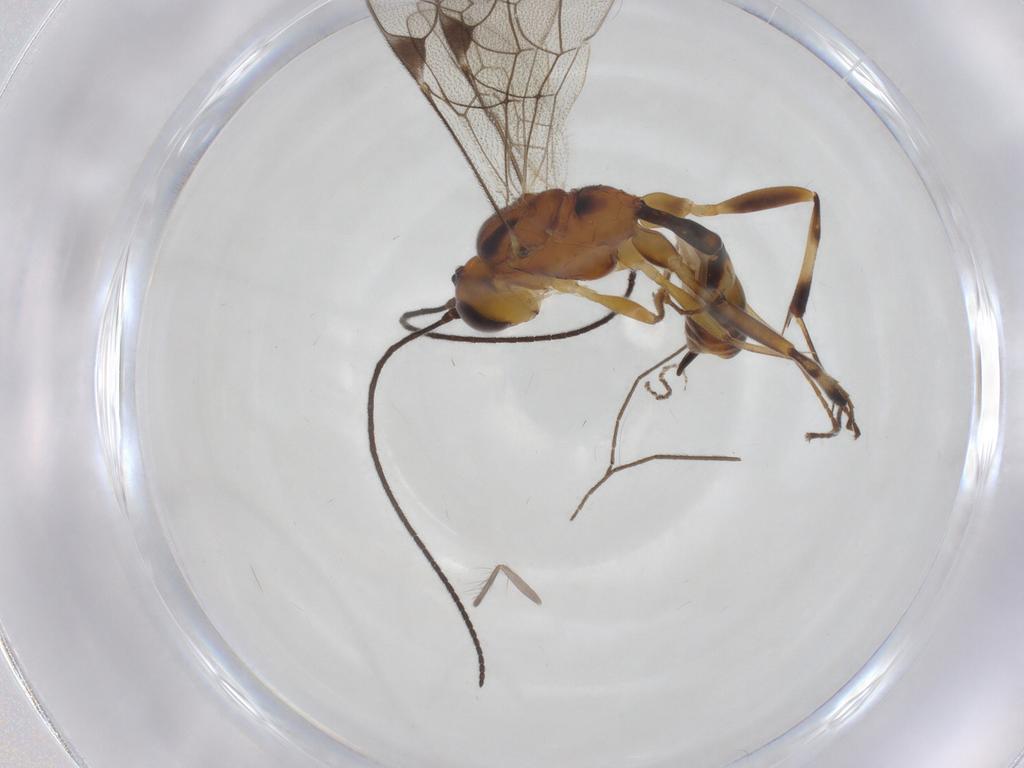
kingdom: Animalia
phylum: Arthropoda
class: Insecta
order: Hymenoptera
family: Ichneumonidae
